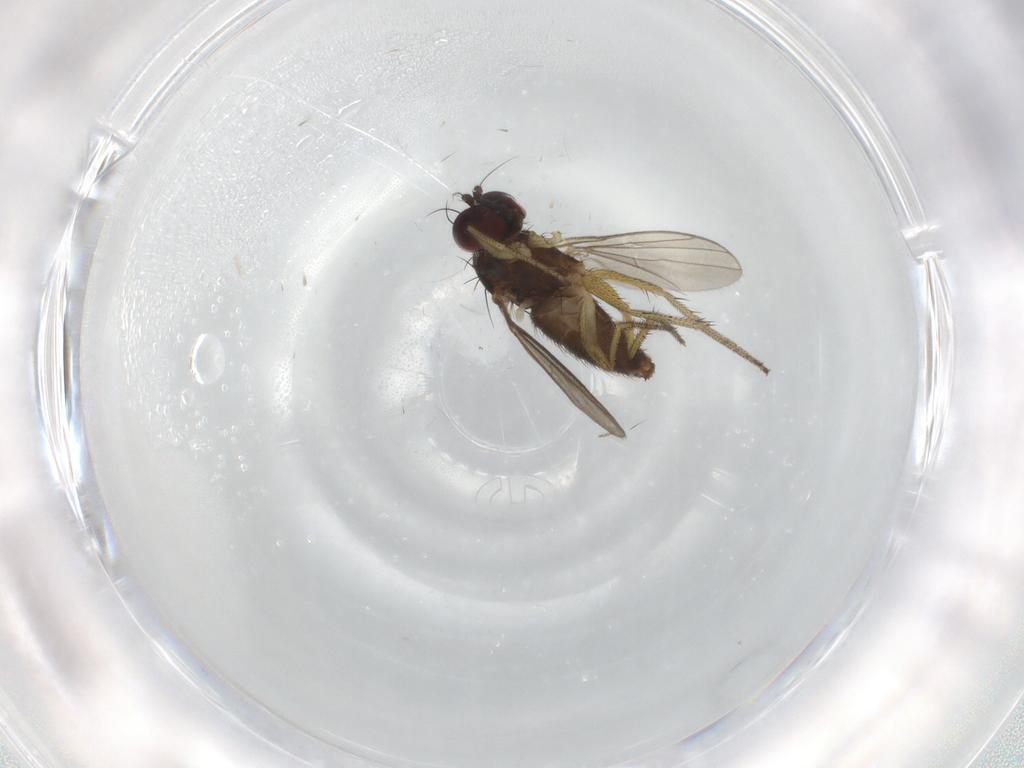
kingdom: Animalia
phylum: Arthropoda
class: Insecta
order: Diptera
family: Dolichopodidae
